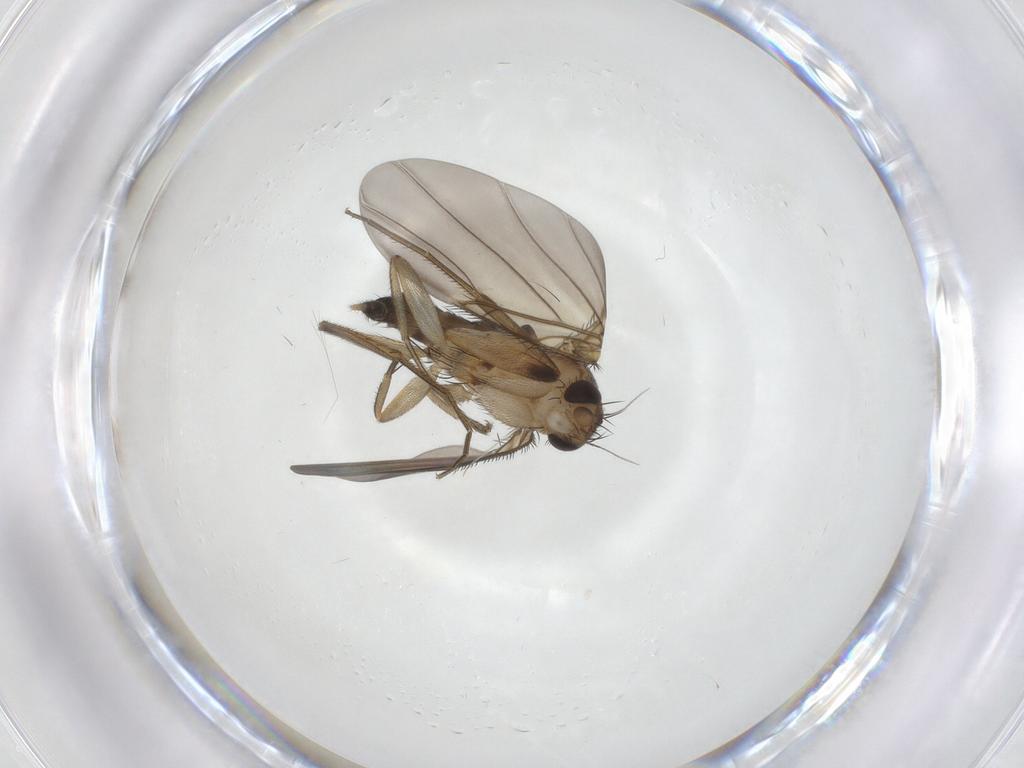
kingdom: Animalia
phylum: Arthropoda
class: Insecta
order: Diptera
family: Phoridae
